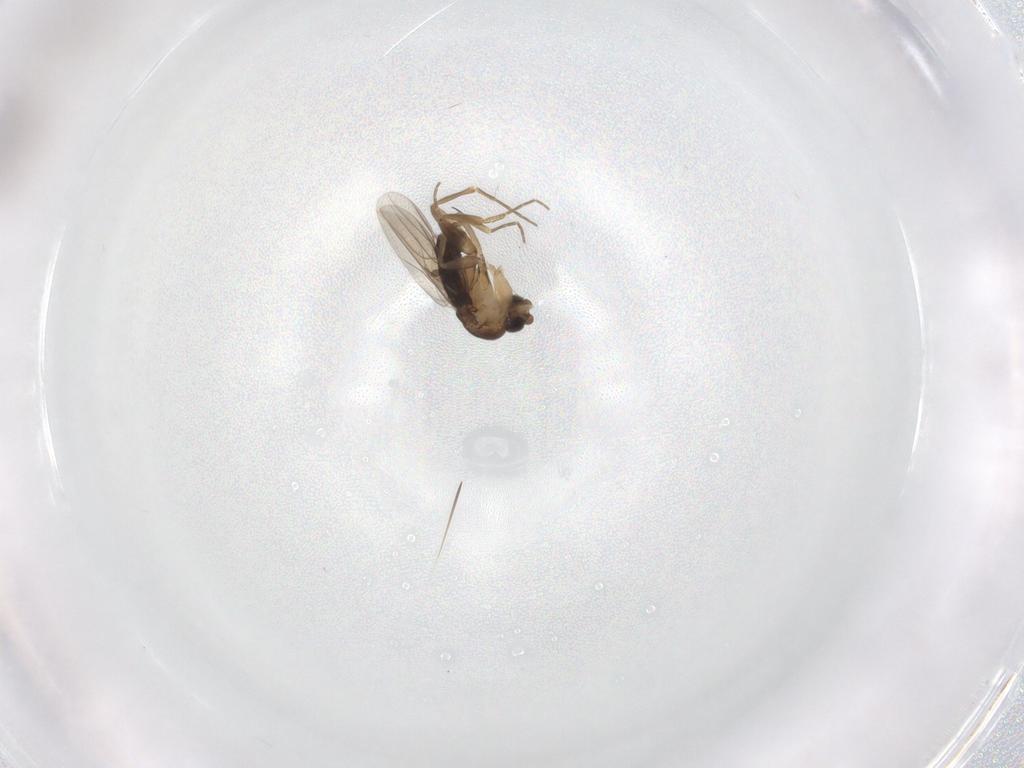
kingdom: Animalia
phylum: Arthropoda
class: Insecta
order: Diptera
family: Phoridae
